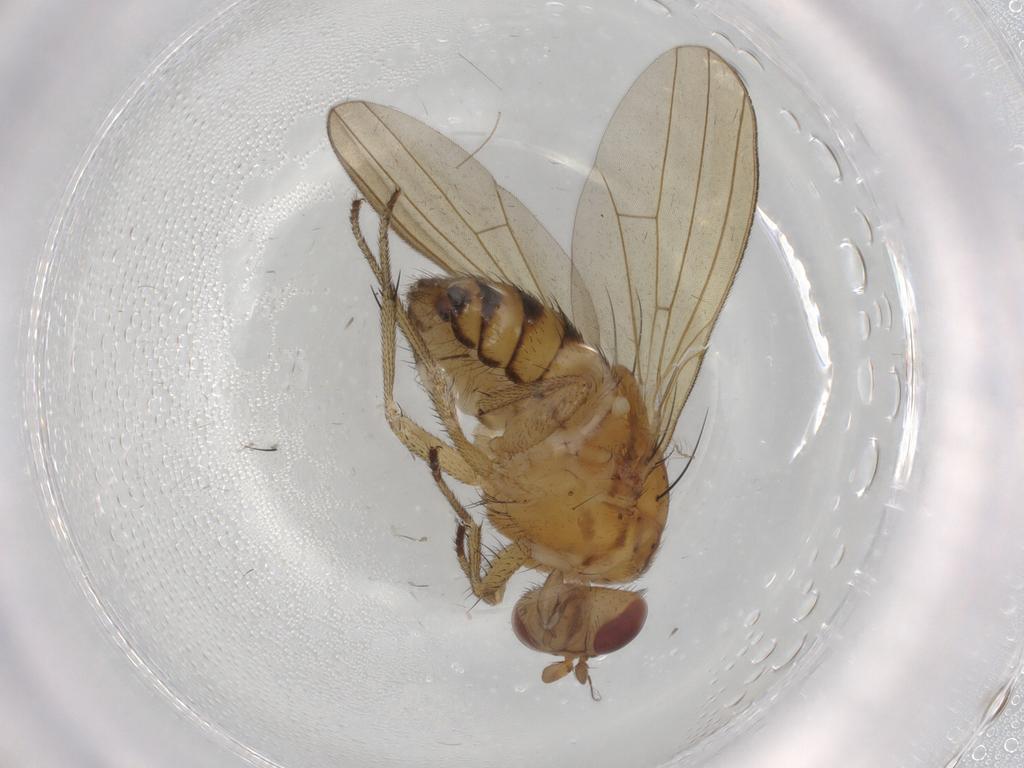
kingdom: Animalia
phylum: Arthropoda
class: Insecta
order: Diptera
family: Chironomidae
